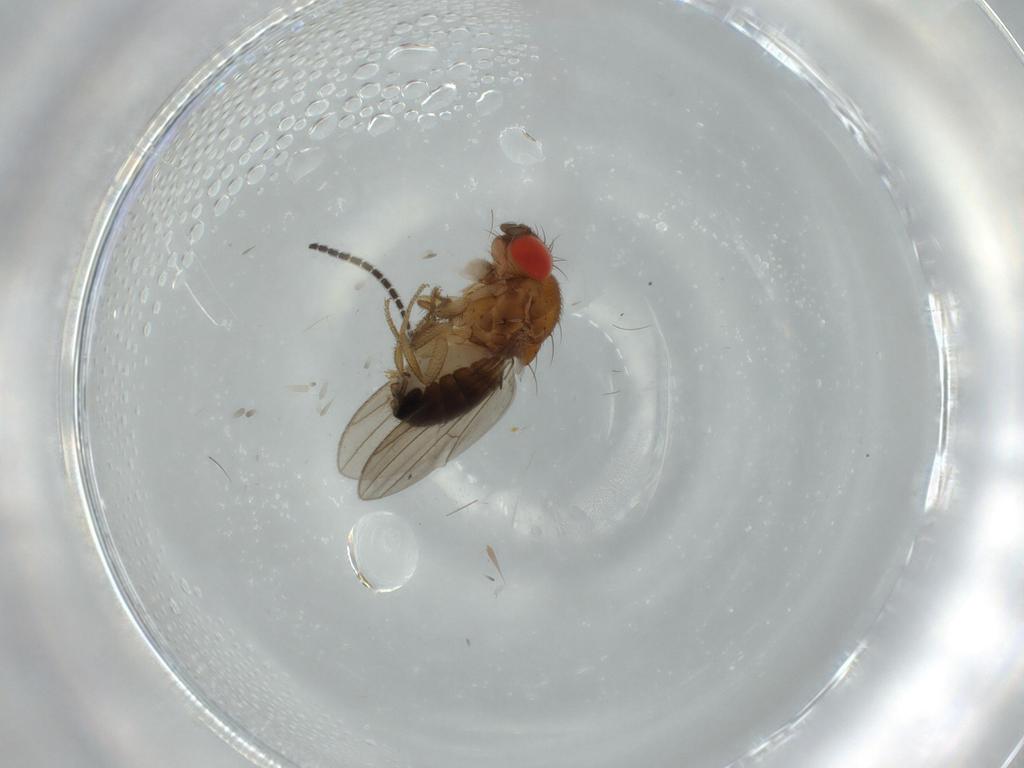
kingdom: Animalia
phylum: Arthropoda
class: Insecta
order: Diptera
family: Drosophilidae
